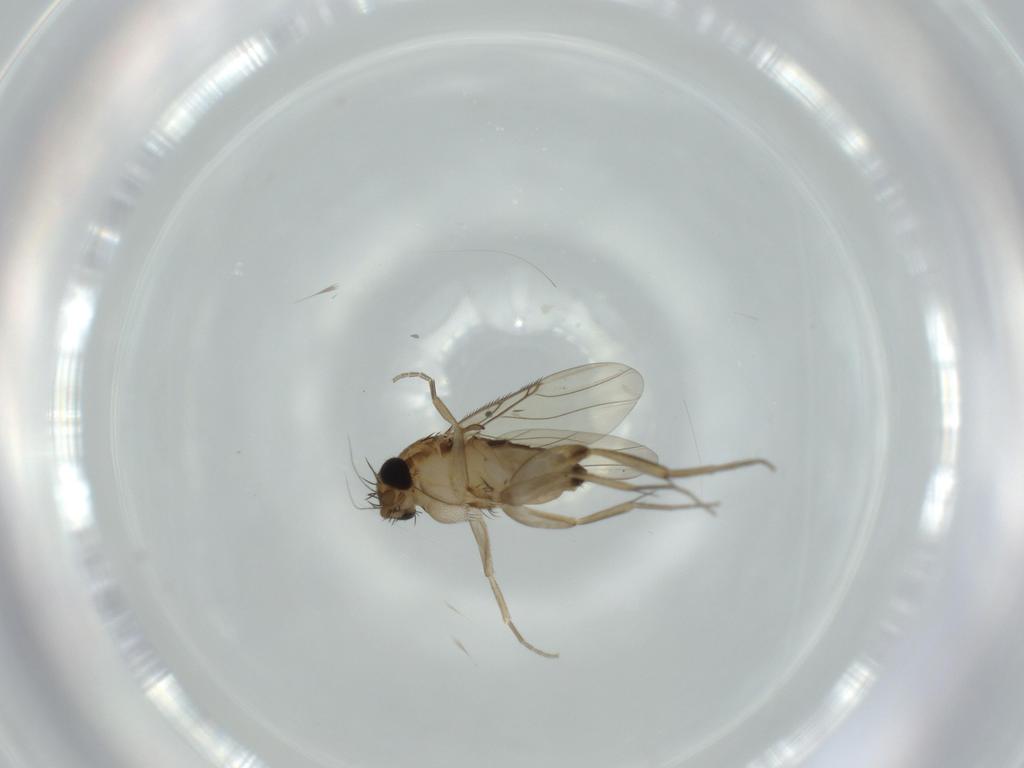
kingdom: Animalia
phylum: Arthropoda
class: Insecta
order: Diptera
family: Phoridae
